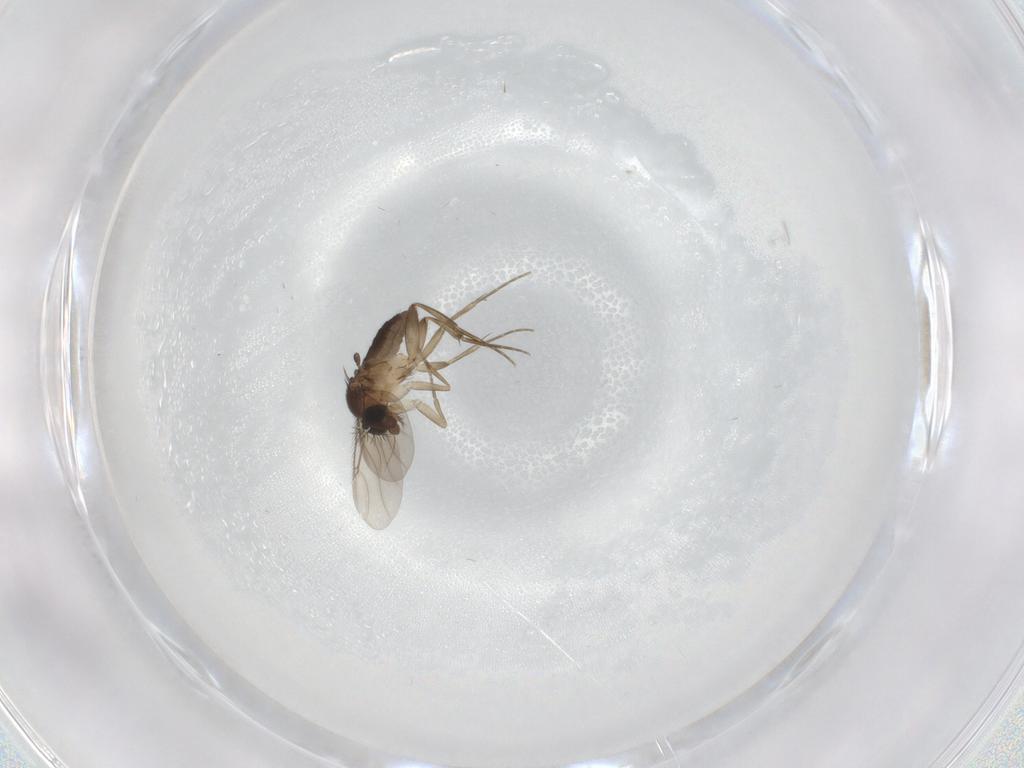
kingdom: Animalia
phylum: Arthropoda
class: Insecta
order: Diptera
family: Phoridae
